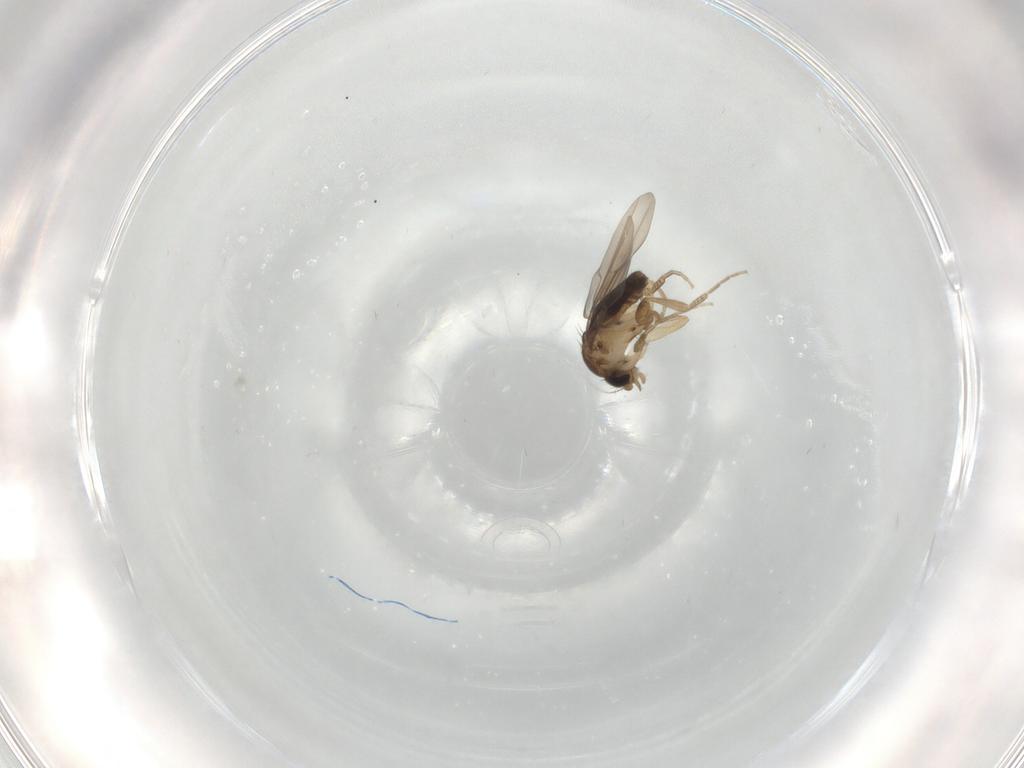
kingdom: Animalia
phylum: Arthropoda
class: Insecta
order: Diptera
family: Phoridae
